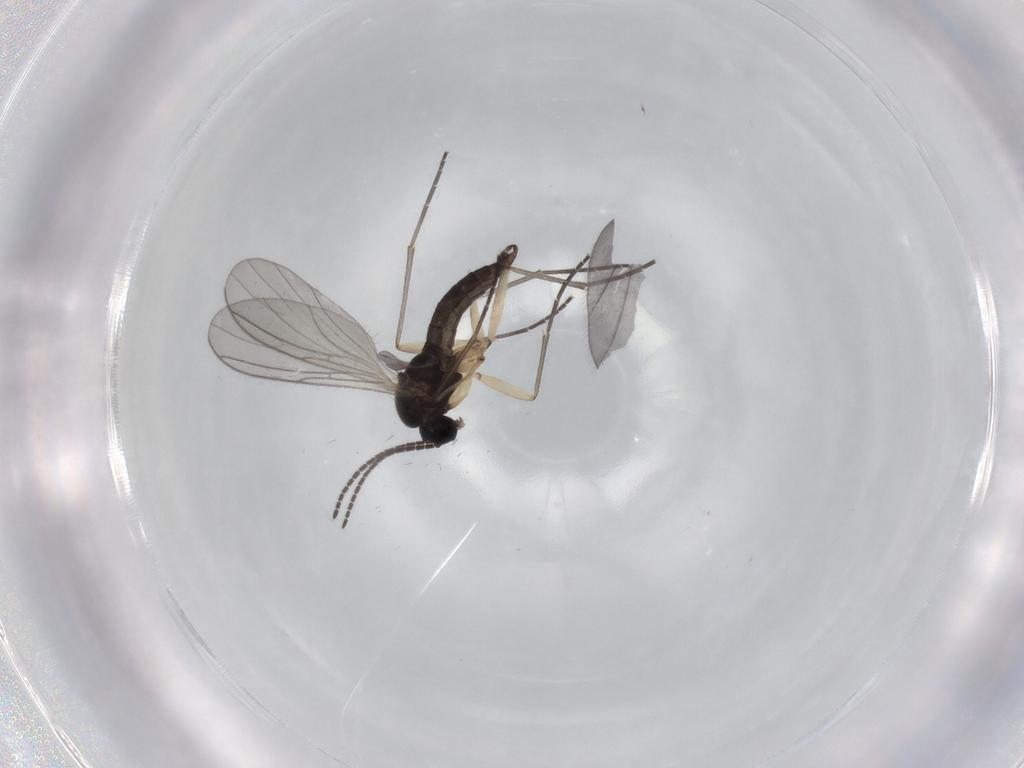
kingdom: Animalia
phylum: Arthropoda
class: Insecta
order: Diptera
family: Sciaridae
